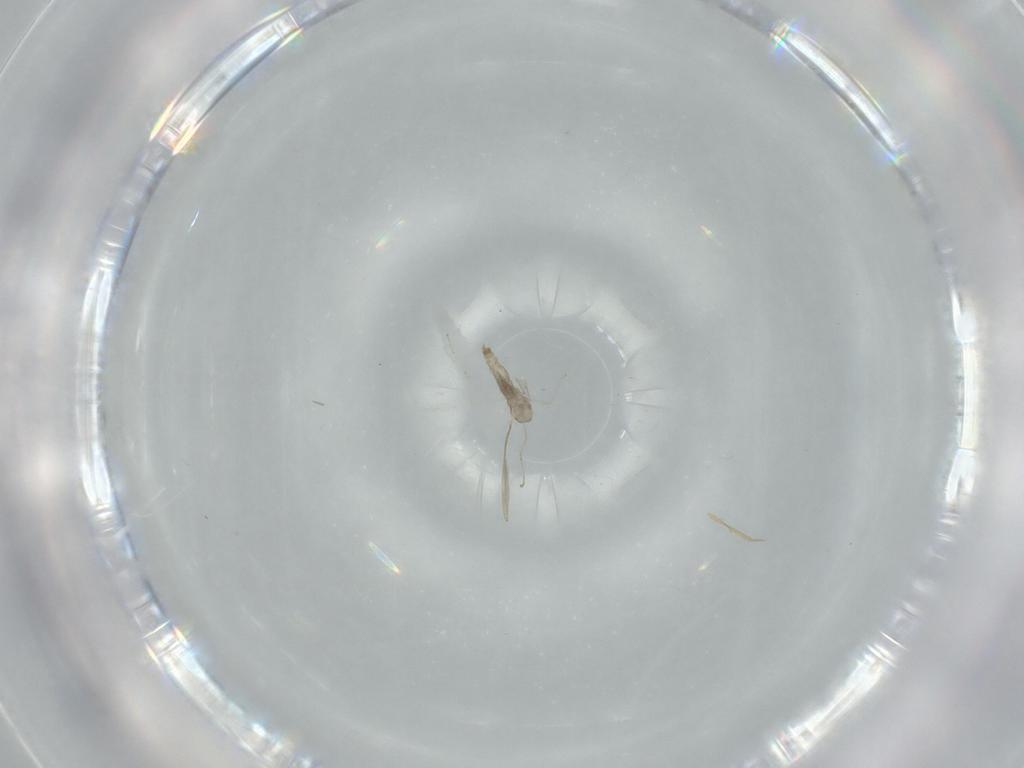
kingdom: Animalia
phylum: Arthropoda
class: Insecta
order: Diptera
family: Cecidomyiidae
